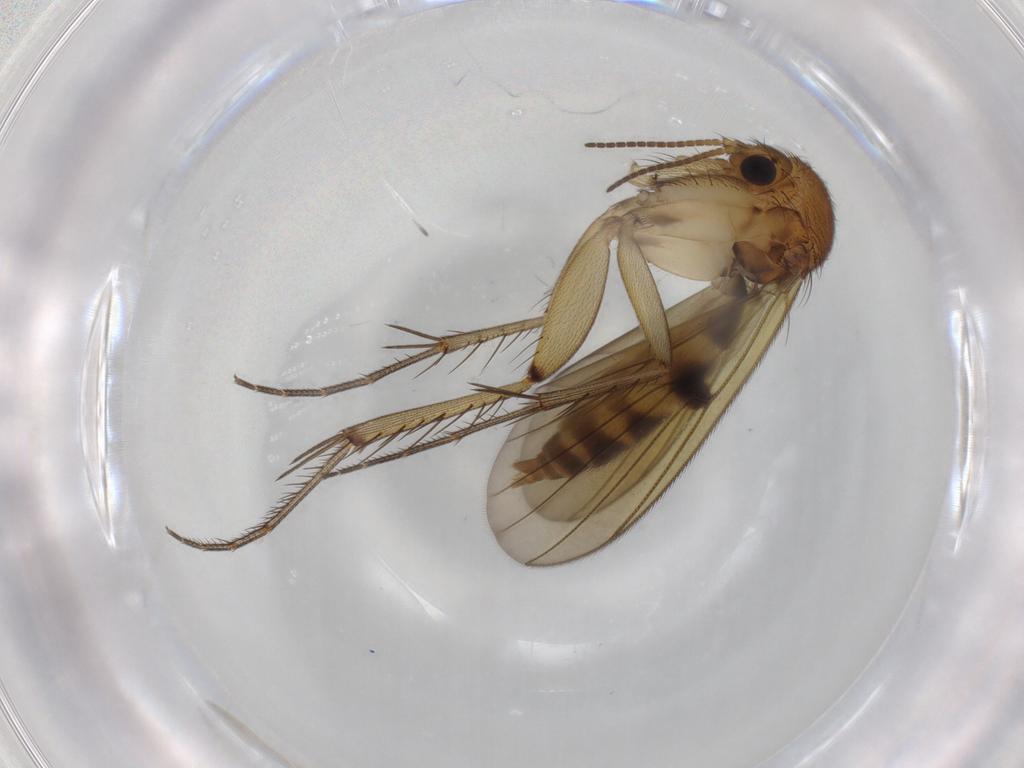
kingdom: Animalia
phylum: Arthropoda
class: Insecta
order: Diptera
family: Mycetophilidae
